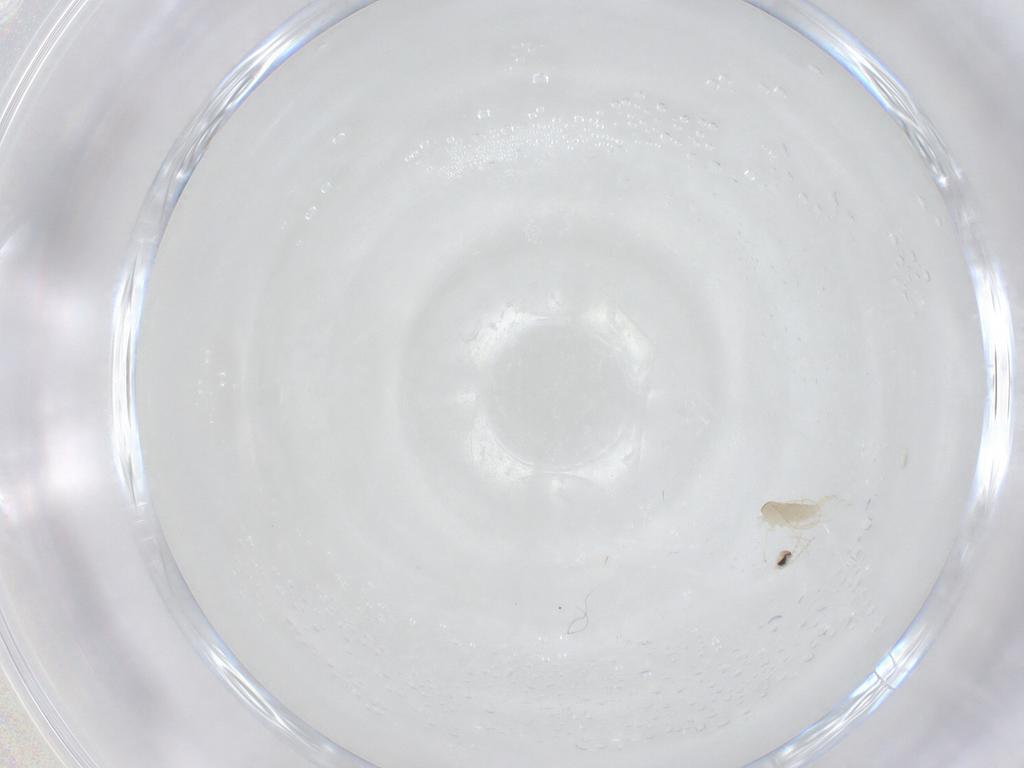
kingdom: Animalia
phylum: Arthropoda
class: Insecta
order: Diptera
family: Cecidomyiidae
